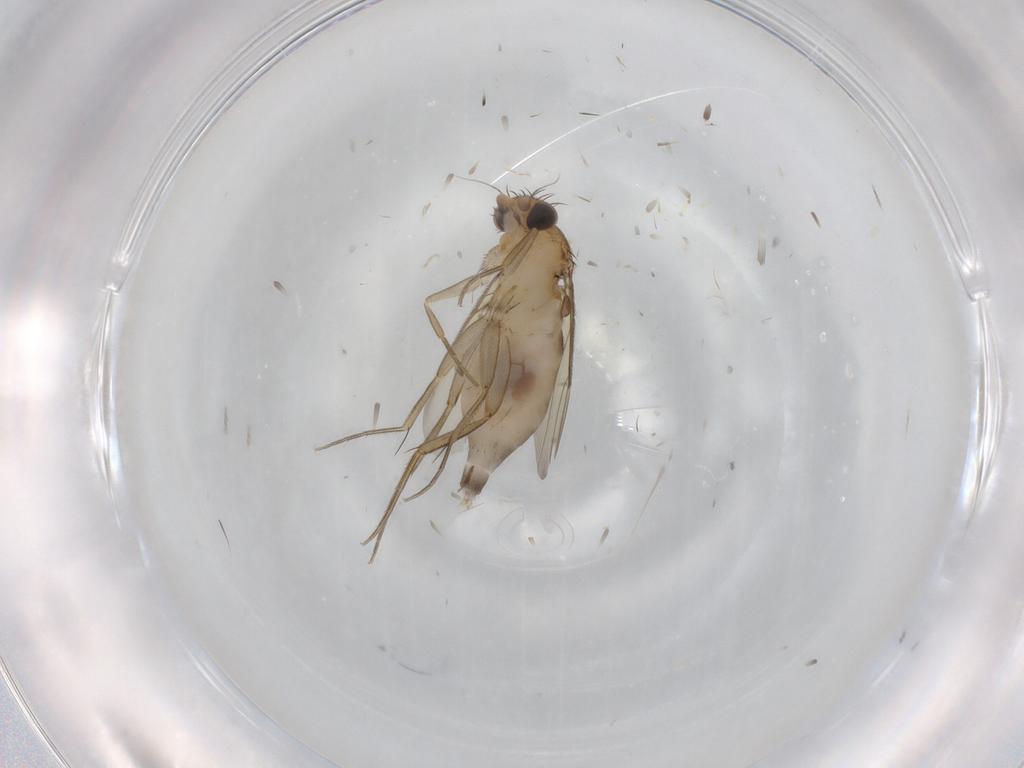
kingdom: Animalia
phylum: Arthropoda
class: Insecta
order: Diptera
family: Phoridae
